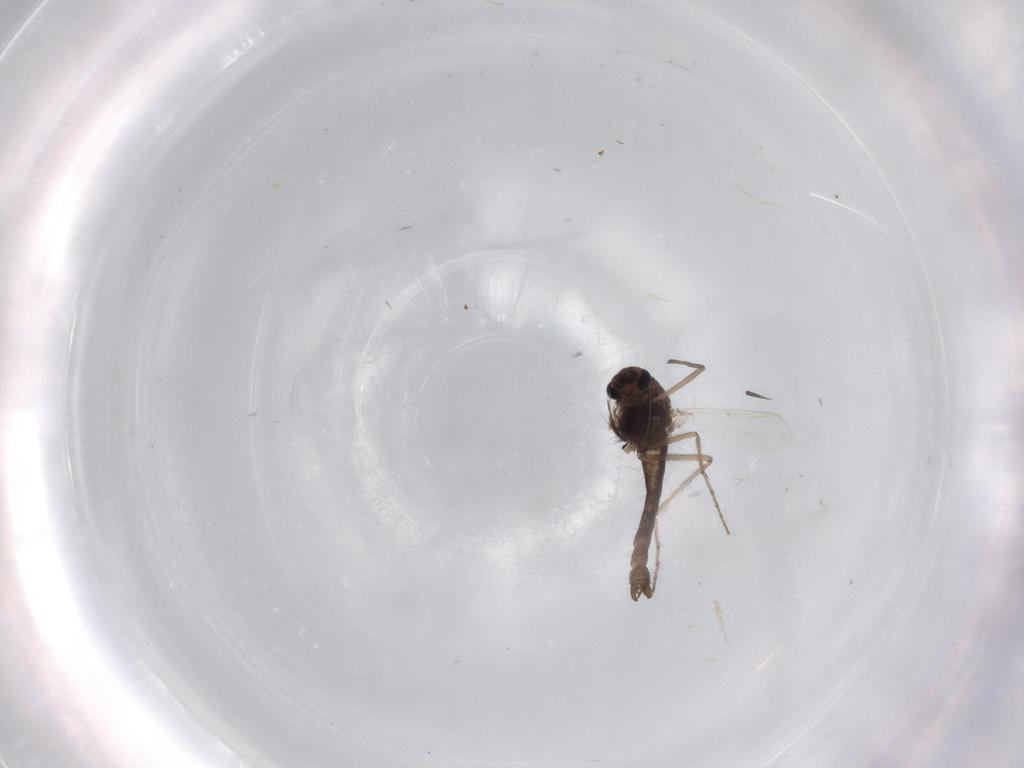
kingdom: Animalia
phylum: Arthropoda
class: Insecta
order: Diptera
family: Chironomidae
